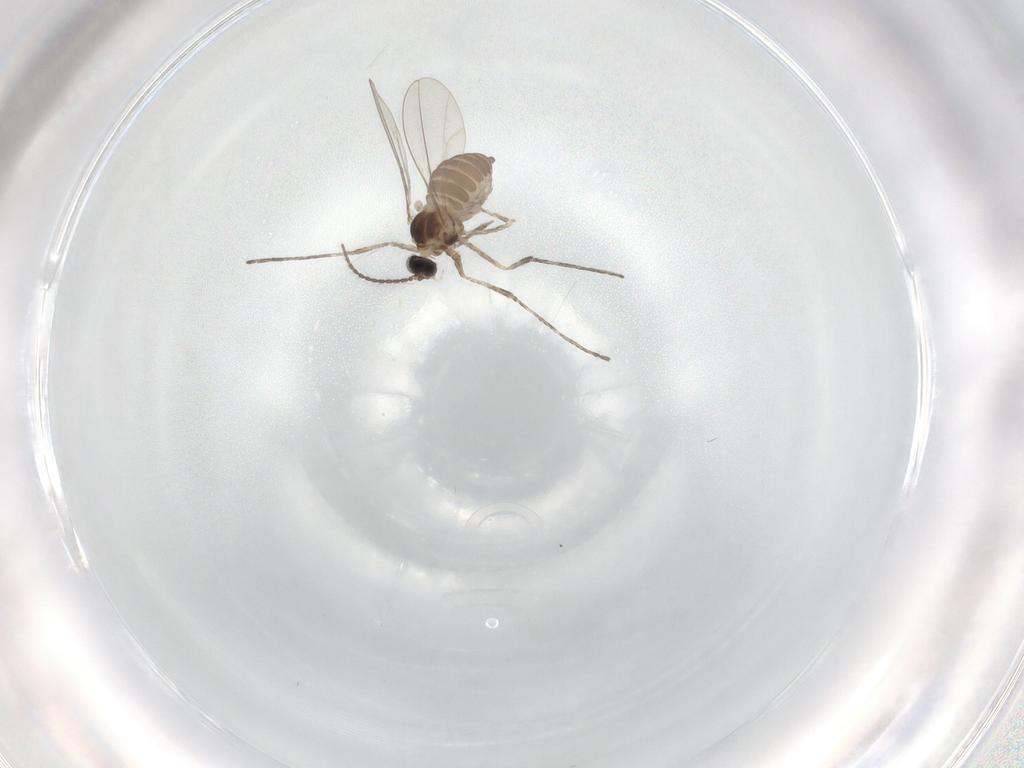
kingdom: Animalia
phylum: Arthropoda
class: Insecta
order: Diptera
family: Cecidomyiidae
